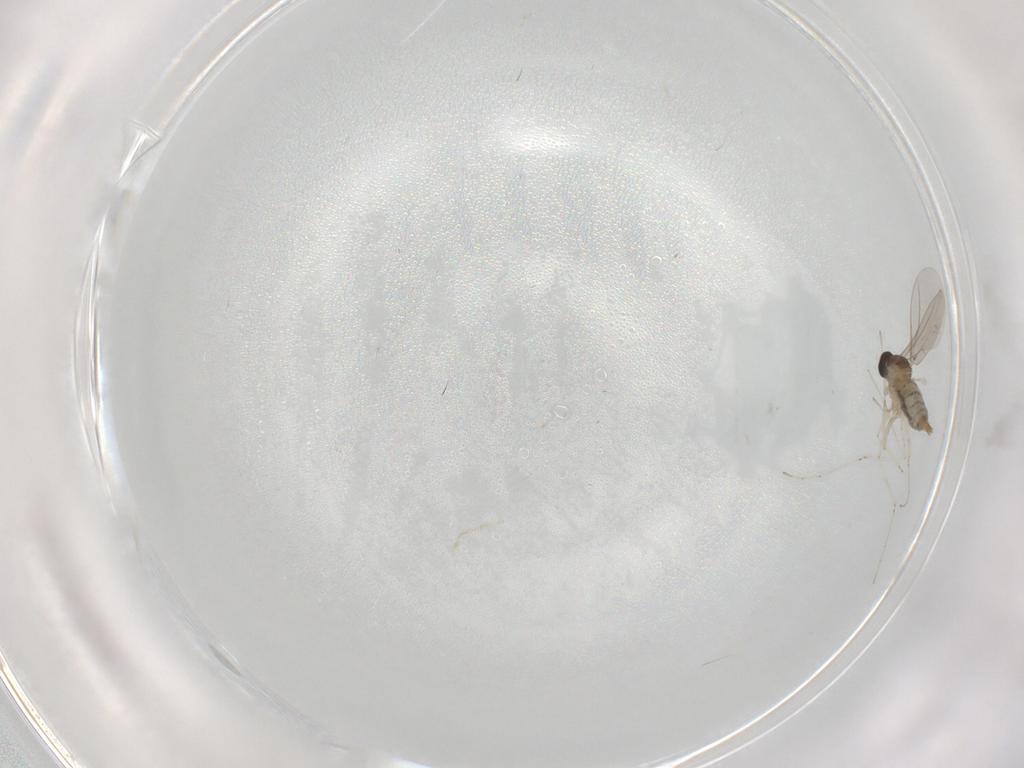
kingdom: Animalia
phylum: Arthropoda
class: Insecta
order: Diptera
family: Cecidomyiidae
